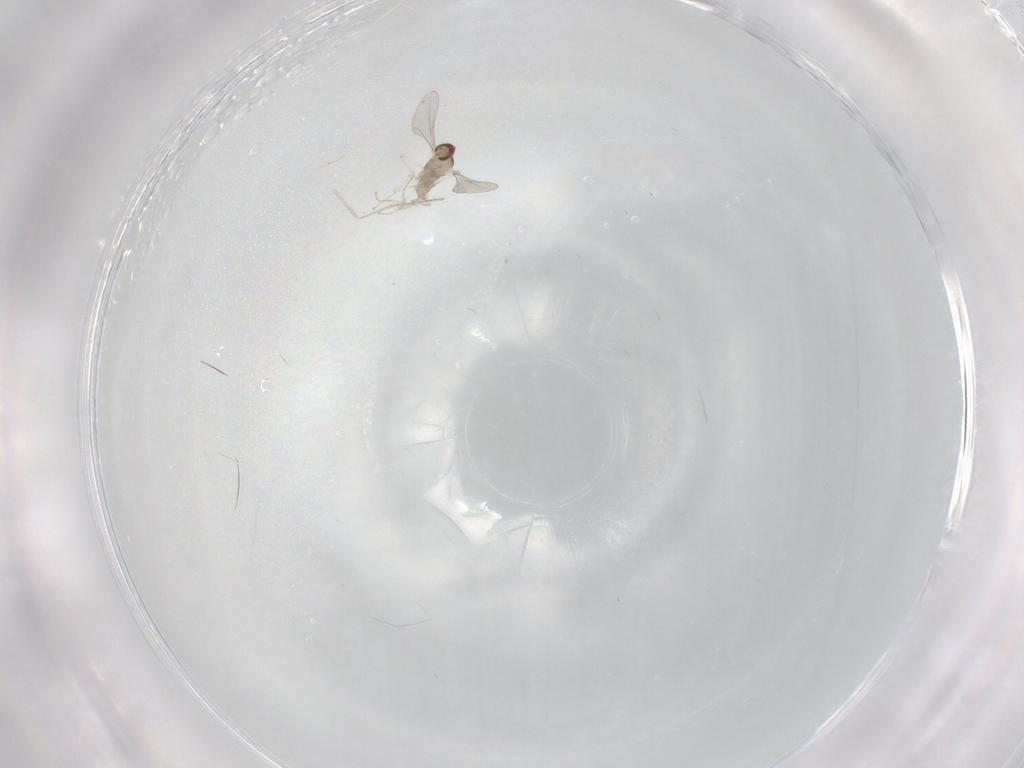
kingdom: Animalia
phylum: Arthropoda
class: Insecta
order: Diptera
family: Cecidomyiidae
